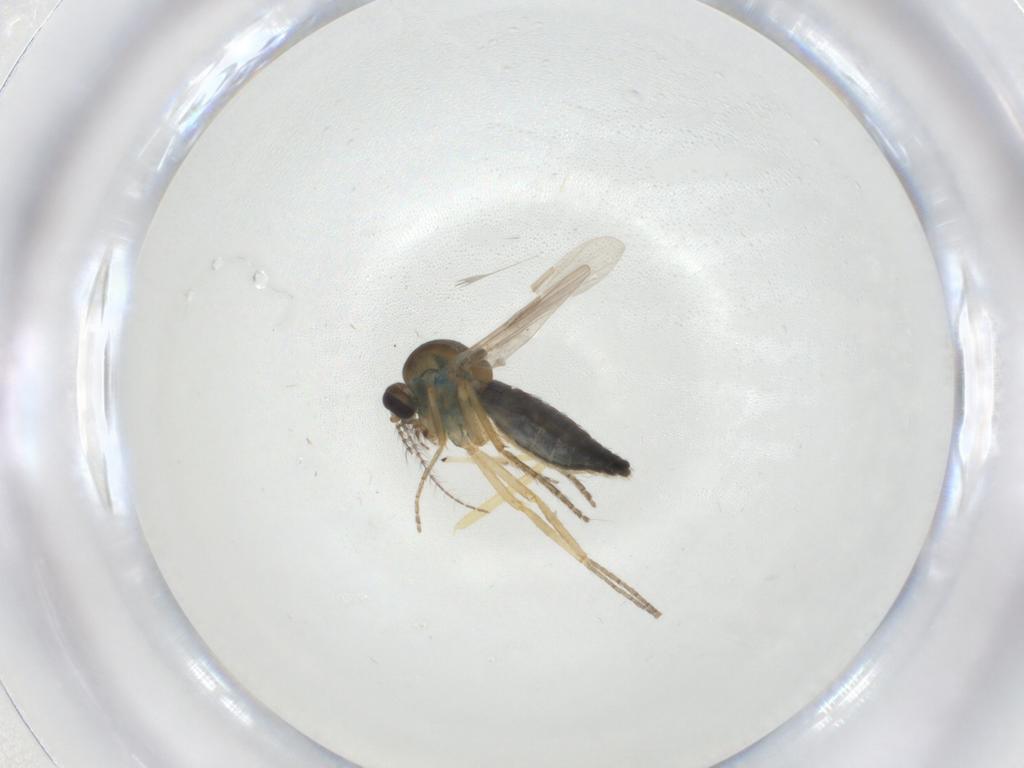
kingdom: Animalia
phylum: Arthropoda
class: Insecta
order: Diptera
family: Ceratopogonidae
